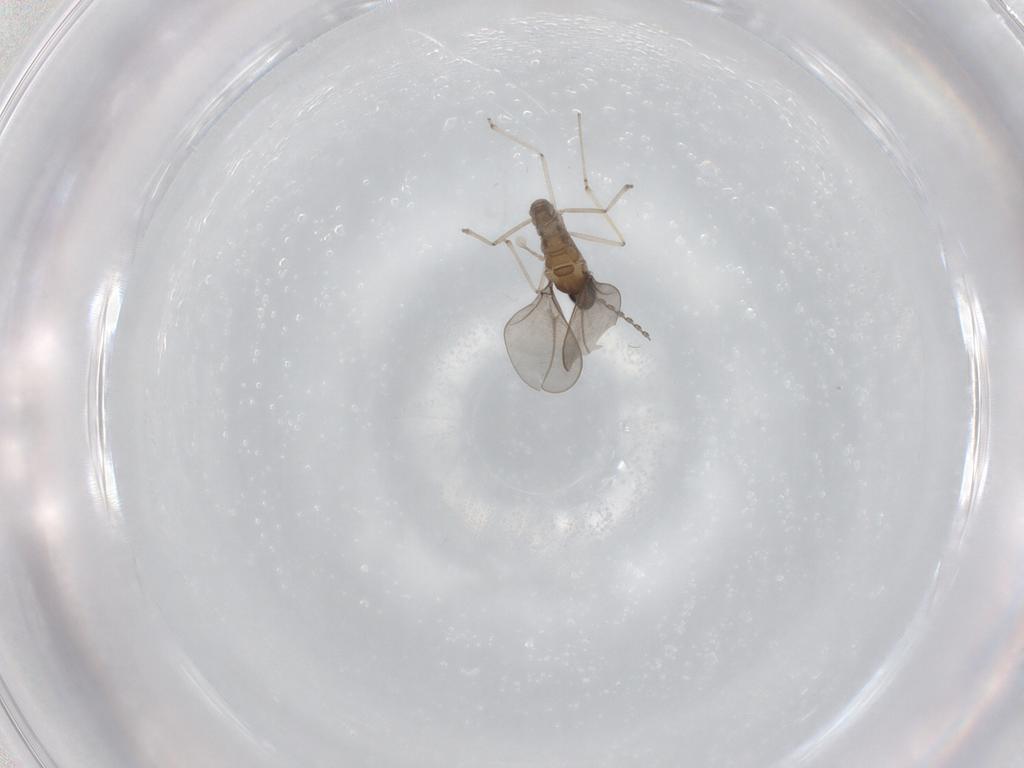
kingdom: Animalia
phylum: Arthropoda
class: Insecta
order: Diptera
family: Cecidomyiidae
